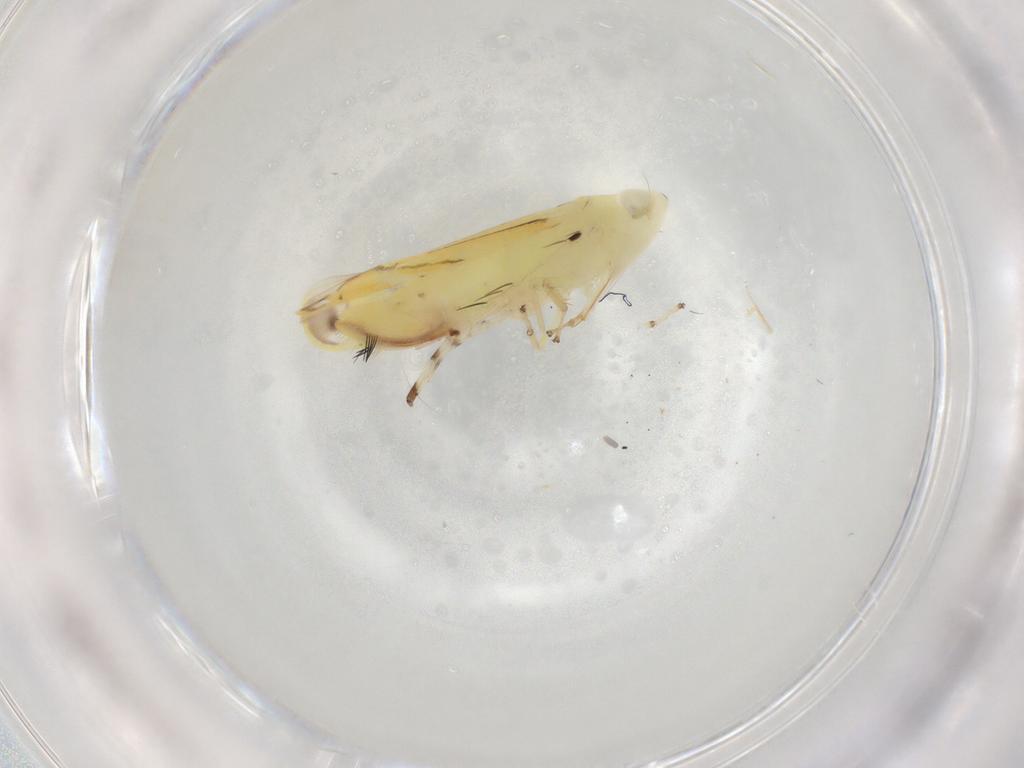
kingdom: Animalia
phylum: Arthropoda
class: Insecta
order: Hemiptera
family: Cicadellidae
